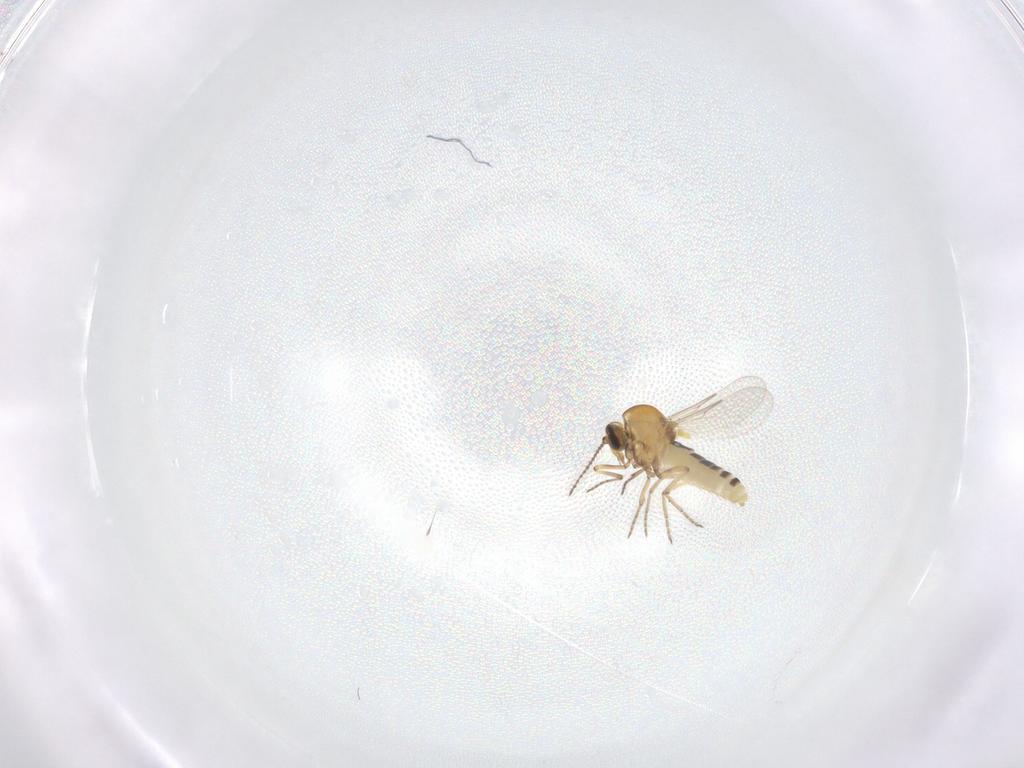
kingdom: Animalia
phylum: Arthropoda
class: Insecta
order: Diptera
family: Ceratopogonidae
